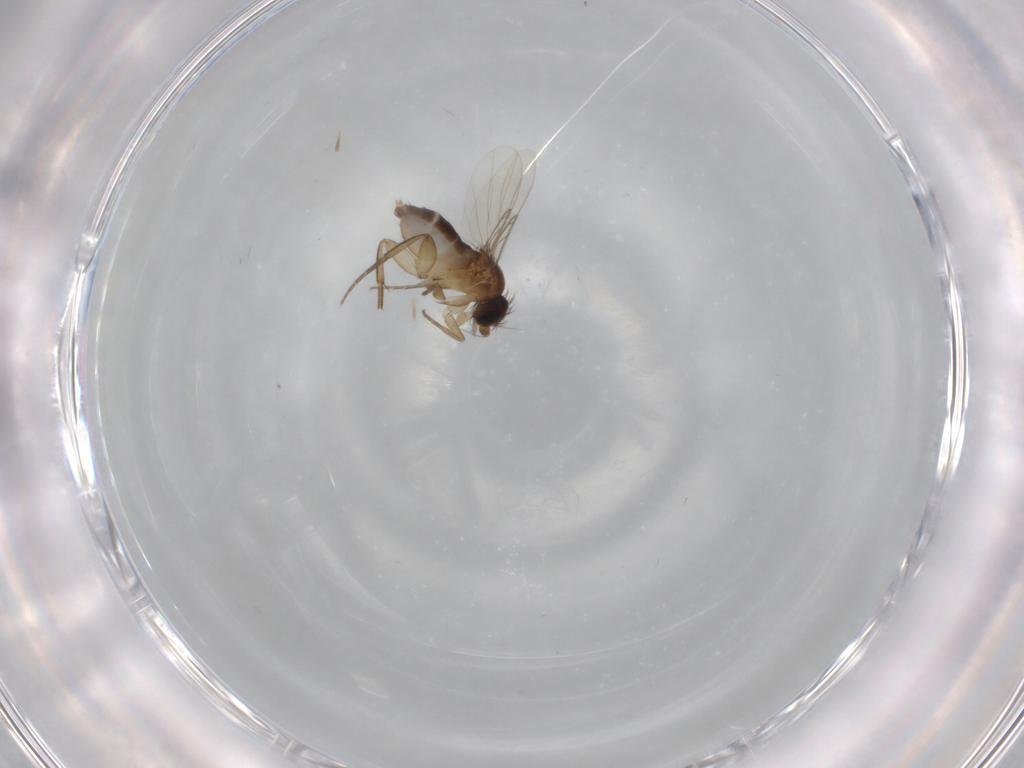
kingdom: Animalia
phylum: Arthropoda
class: Insecta
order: Diptera
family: Phoridae
